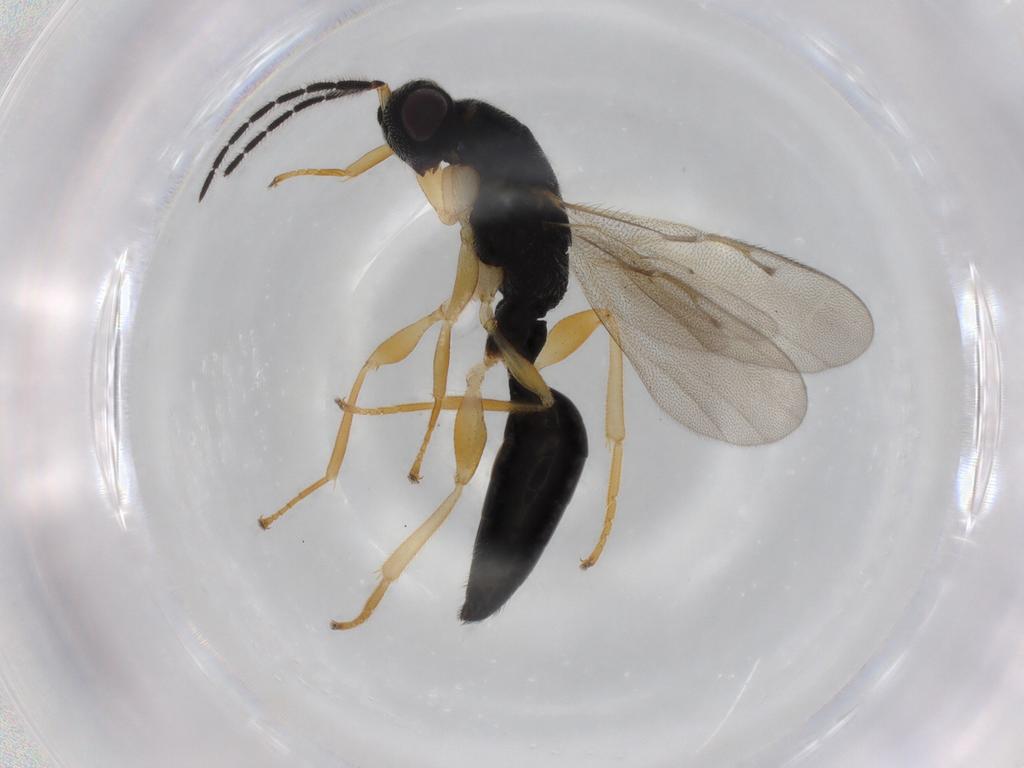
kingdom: Animalia
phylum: Arthropoda
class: Insecta
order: Hymenoptera
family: Eurytomidae
